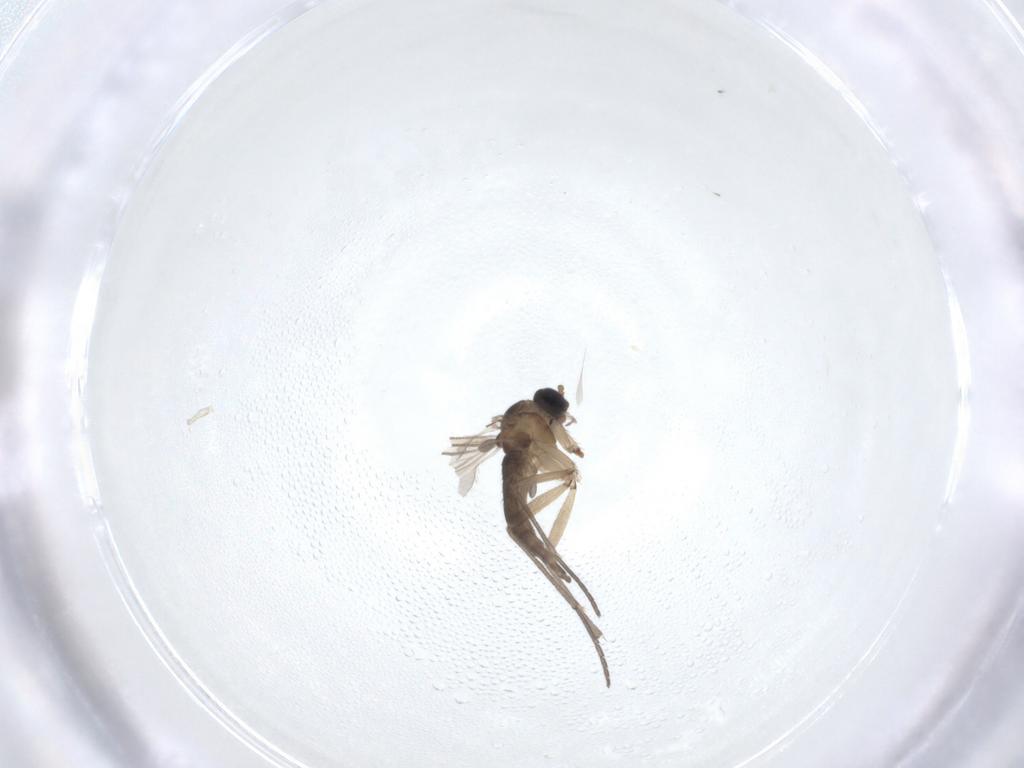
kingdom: Animalia
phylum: Arthropoda
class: Insecta
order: Diptera
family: Sciaridae
